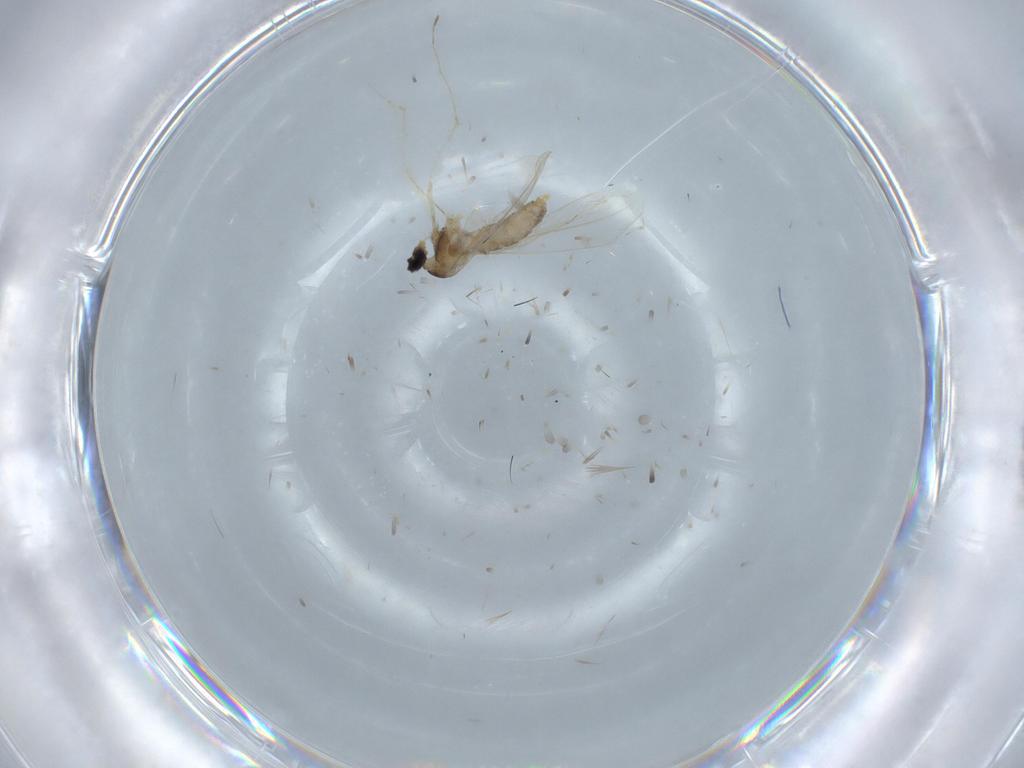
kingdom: Animalia
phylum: Arthropoda
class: Insecta
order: Diptera
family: Cecidomyiidae
